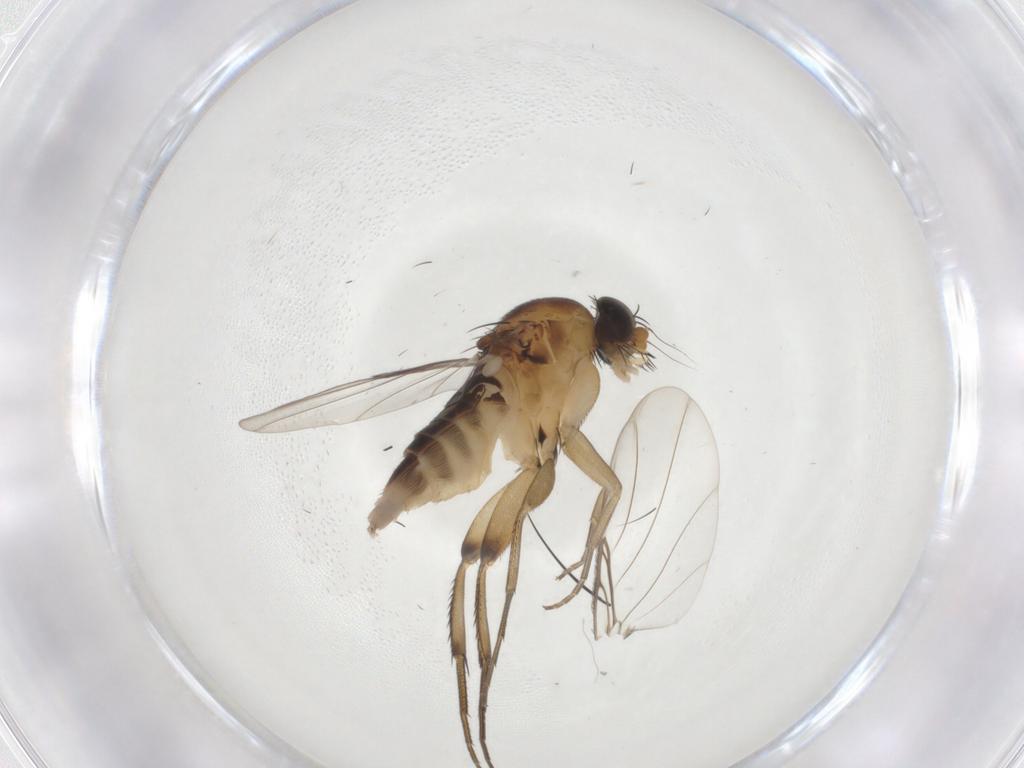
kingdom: Animalia
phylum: Arthropoda
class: Insecta
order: Diptera
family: Phoridae
